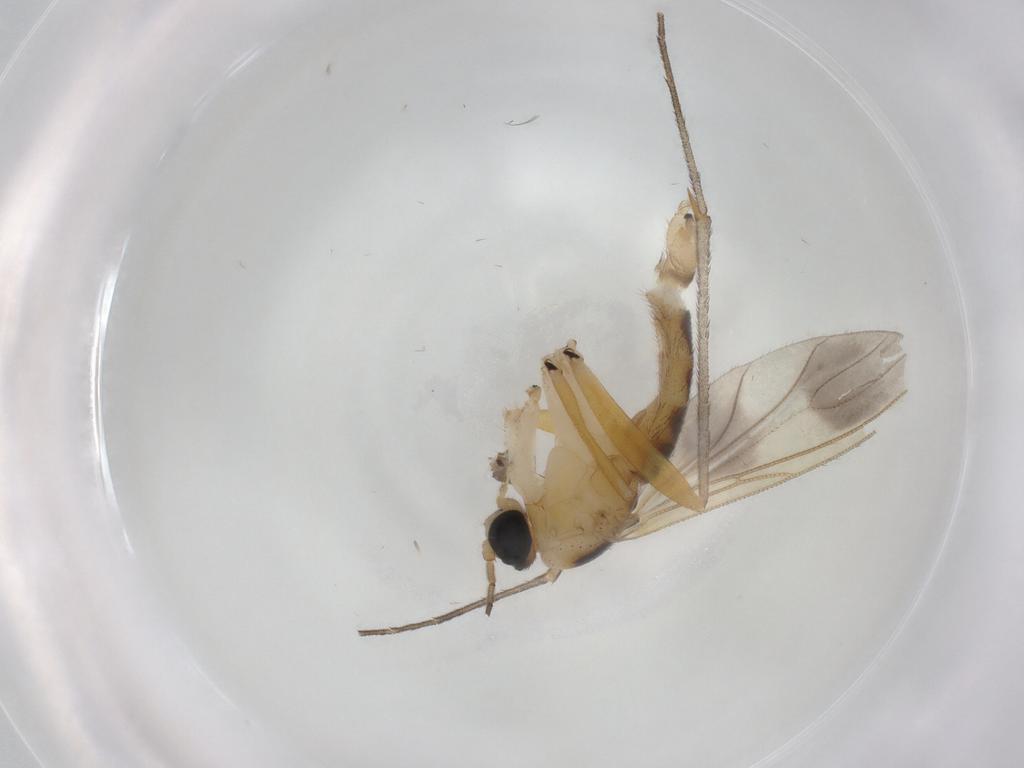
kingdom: Animalia
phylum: Arthropoda
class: Insecta
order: Diptera
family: Sciaridae
